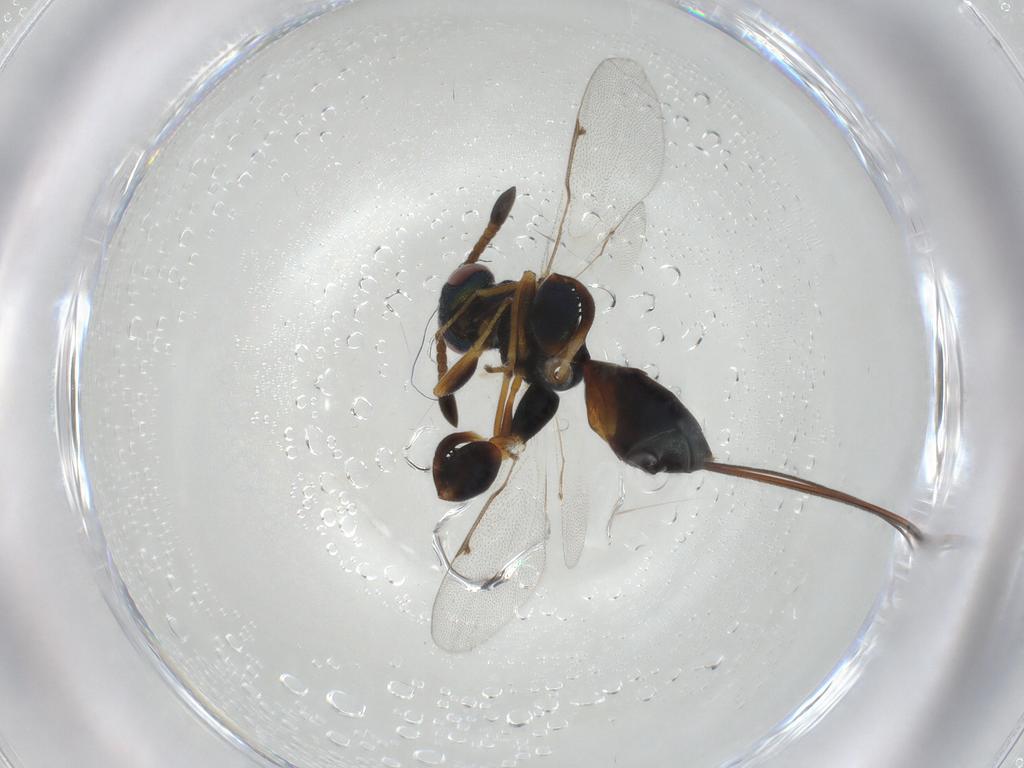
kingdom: Animalia
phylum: Arthropoda
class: Insecta
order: Hymenoptera
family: Torymidae
